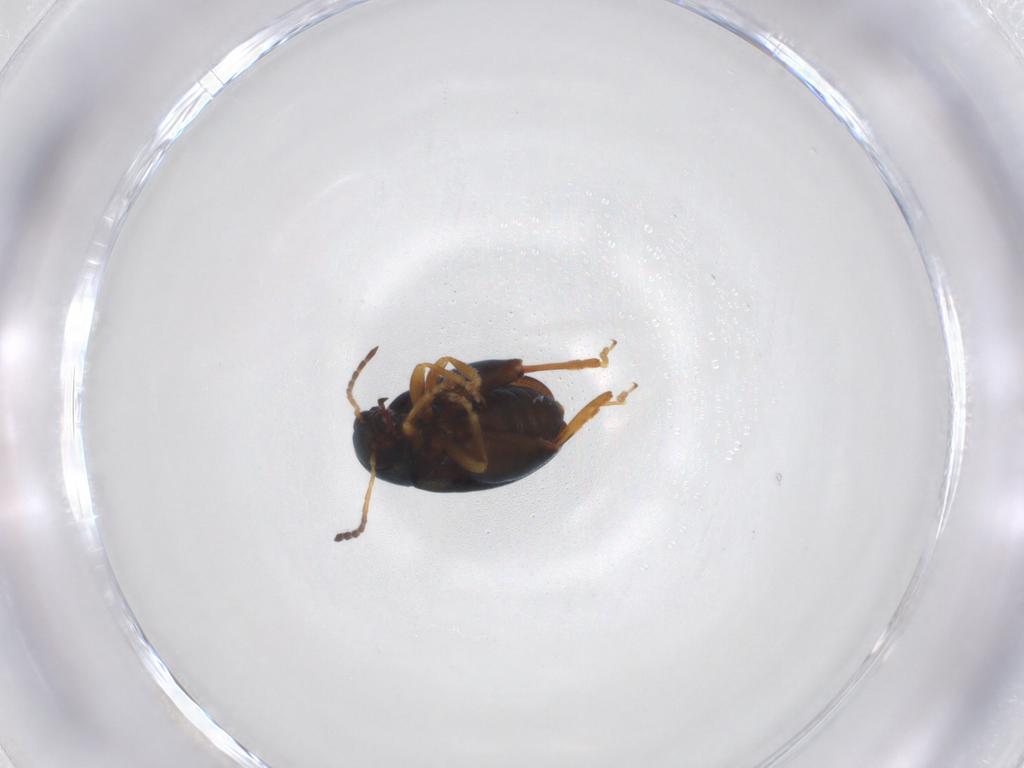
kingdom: Animalia
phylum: Arthropoda
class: Insecta
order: Coleoptera
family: Chrysomelidae
